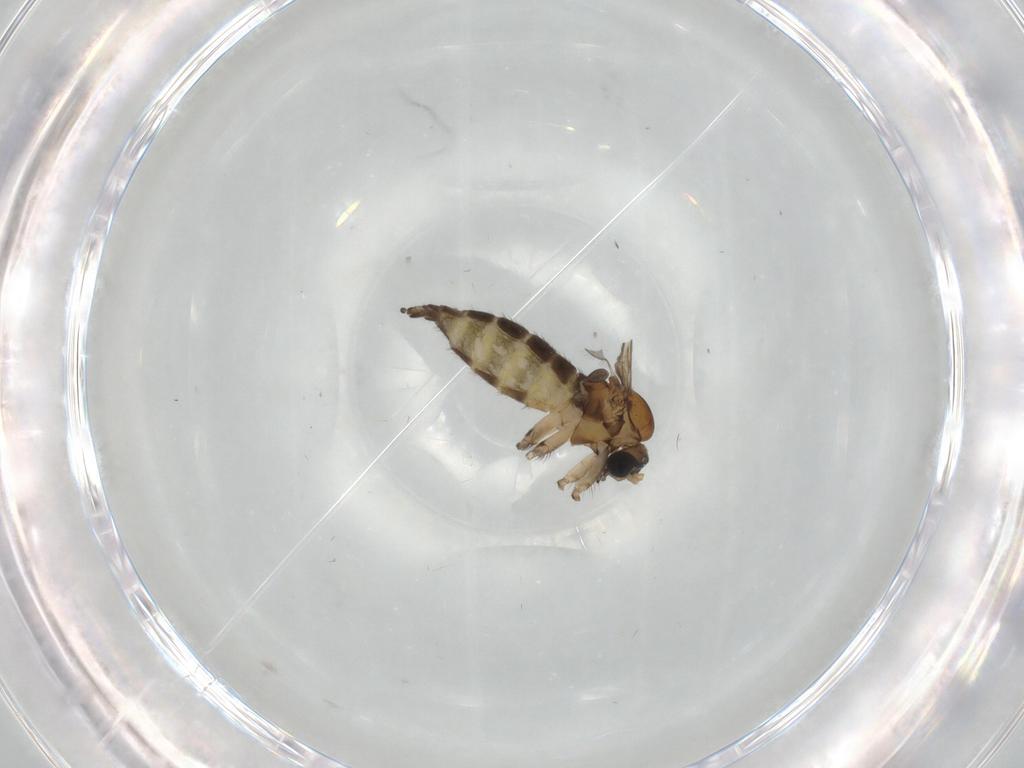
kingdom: Animalia
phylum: Arthropoda
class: Insecta
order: Diptera
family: Sciaridae
